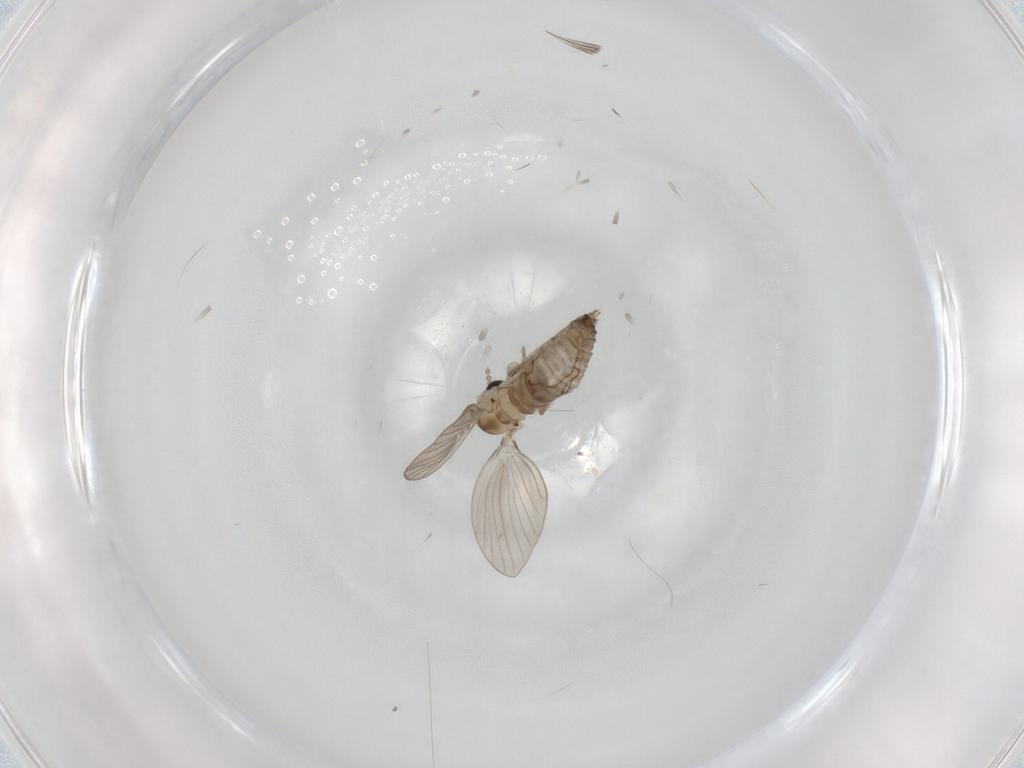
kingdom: Animalia
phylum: Arthropoda
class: Insecta
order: Diptera
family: Drosophilidae
